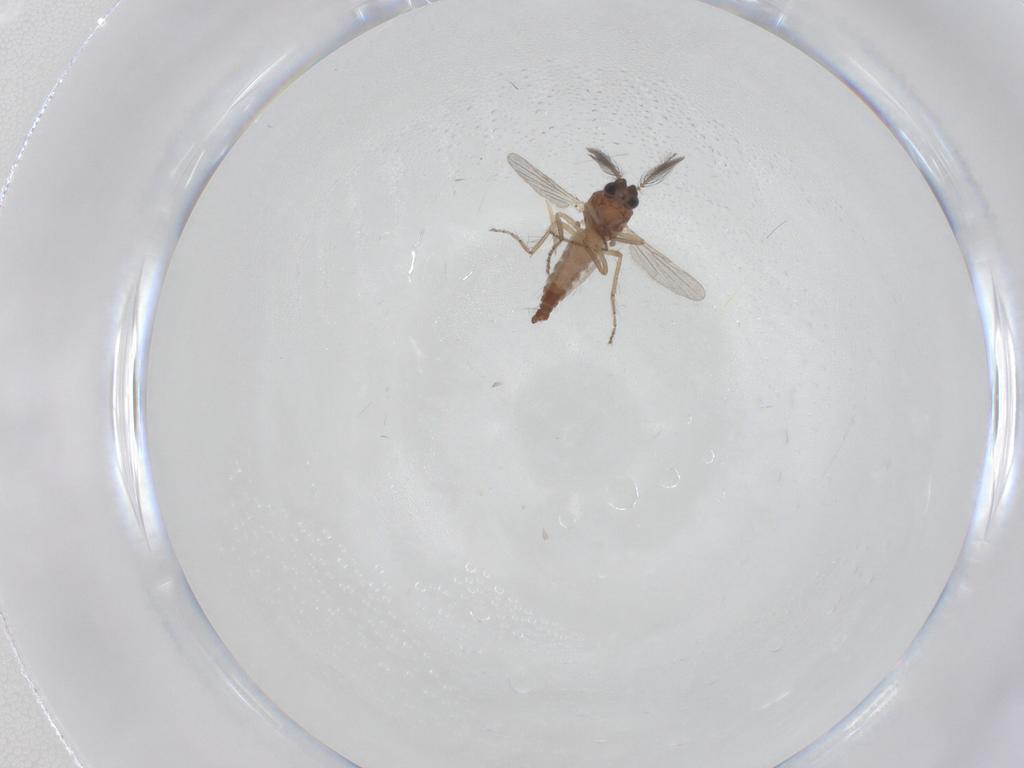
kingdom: Animalia
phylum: Arthropoda
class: Insecta
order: Diptera
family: Ceratopogonidae
